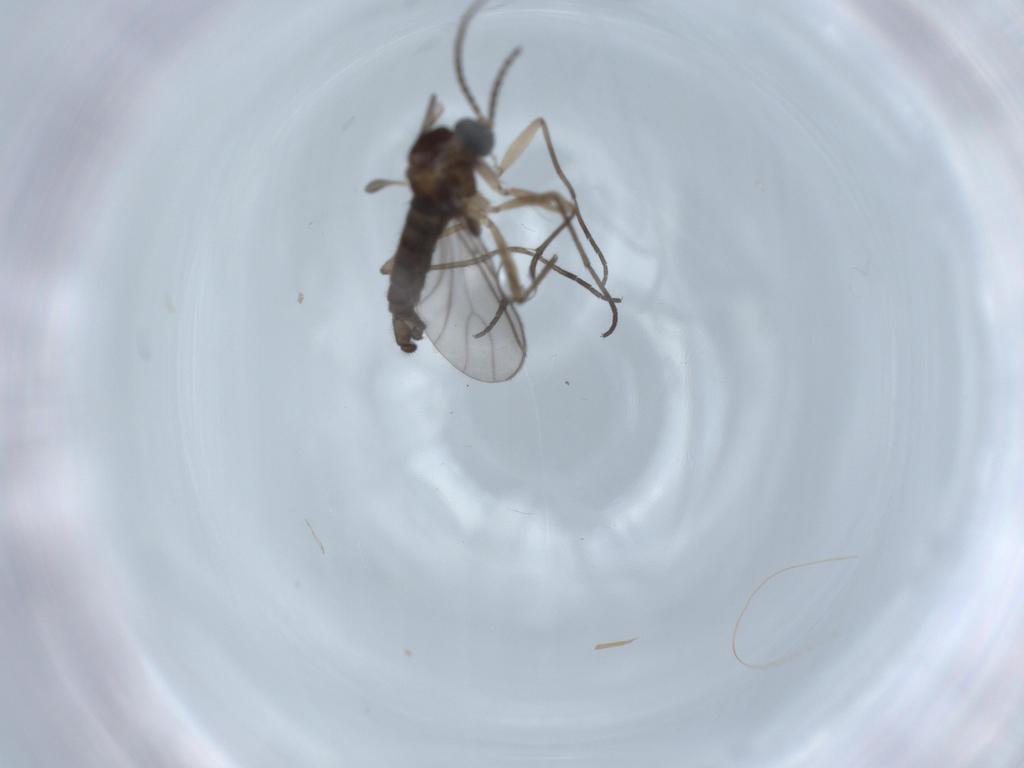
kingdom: Animalia
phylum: Arthropoda
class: Insecta
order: Diptera
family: Sciaridae
